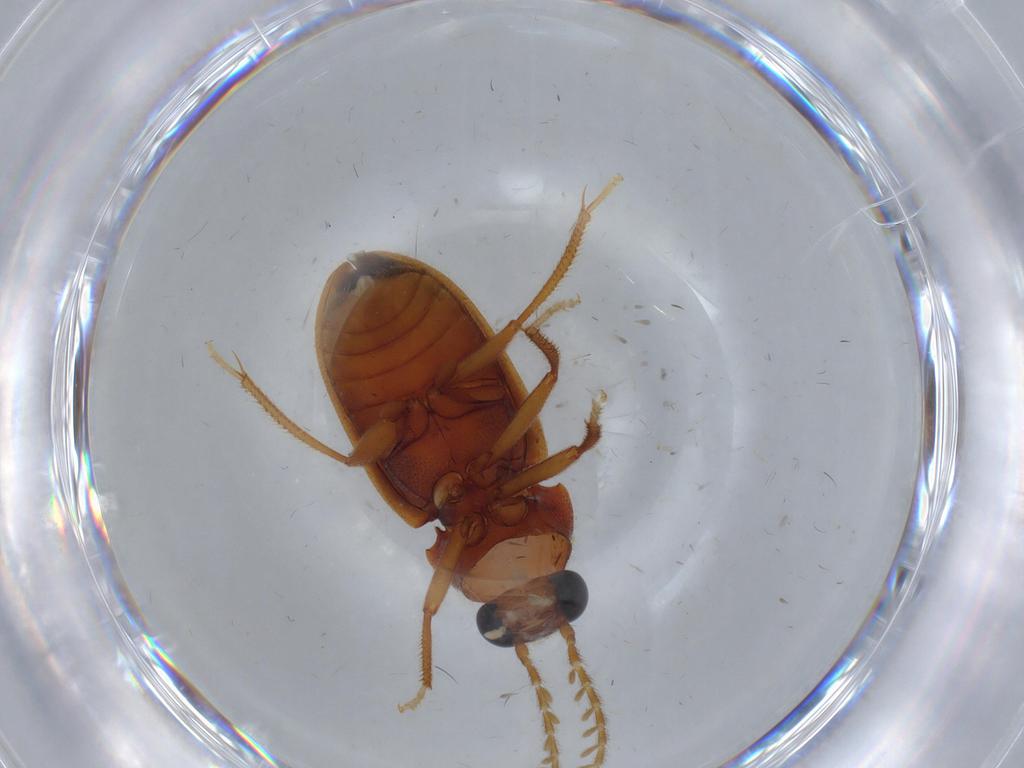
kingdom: Animalia
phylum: Arthropoda
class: Insecta
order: Coleoptera
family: Ptilodactylidae
